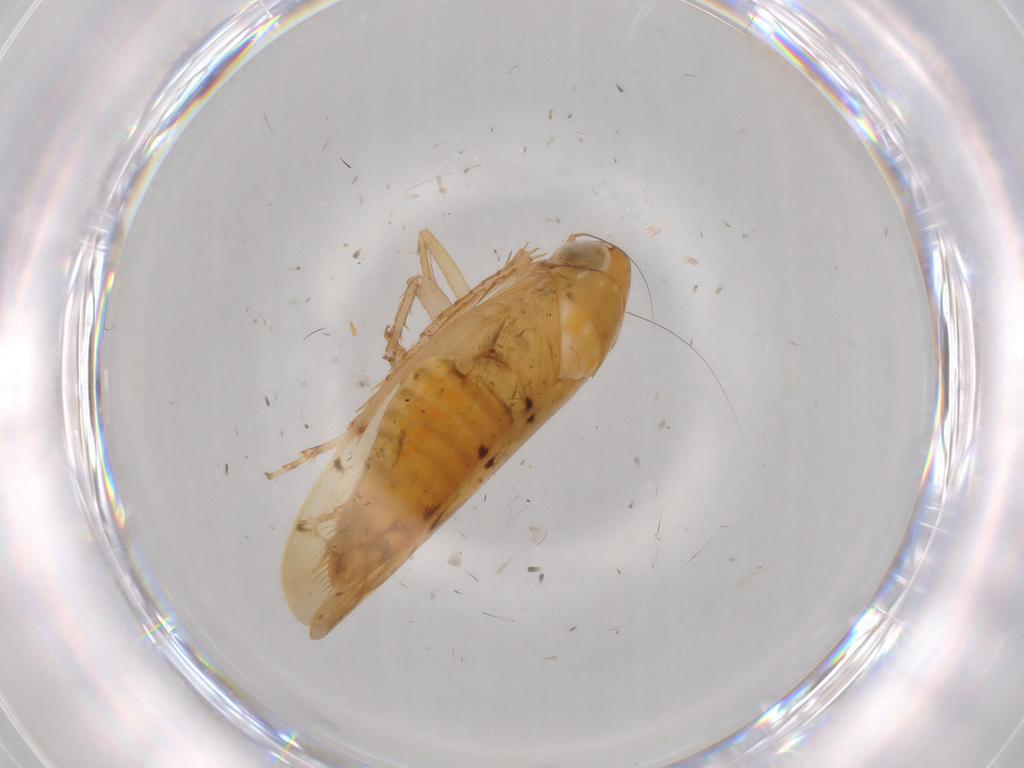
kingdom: Animalia
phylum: Arthropoda
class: Insecta
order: Hemiptera
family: Cicadellidae
